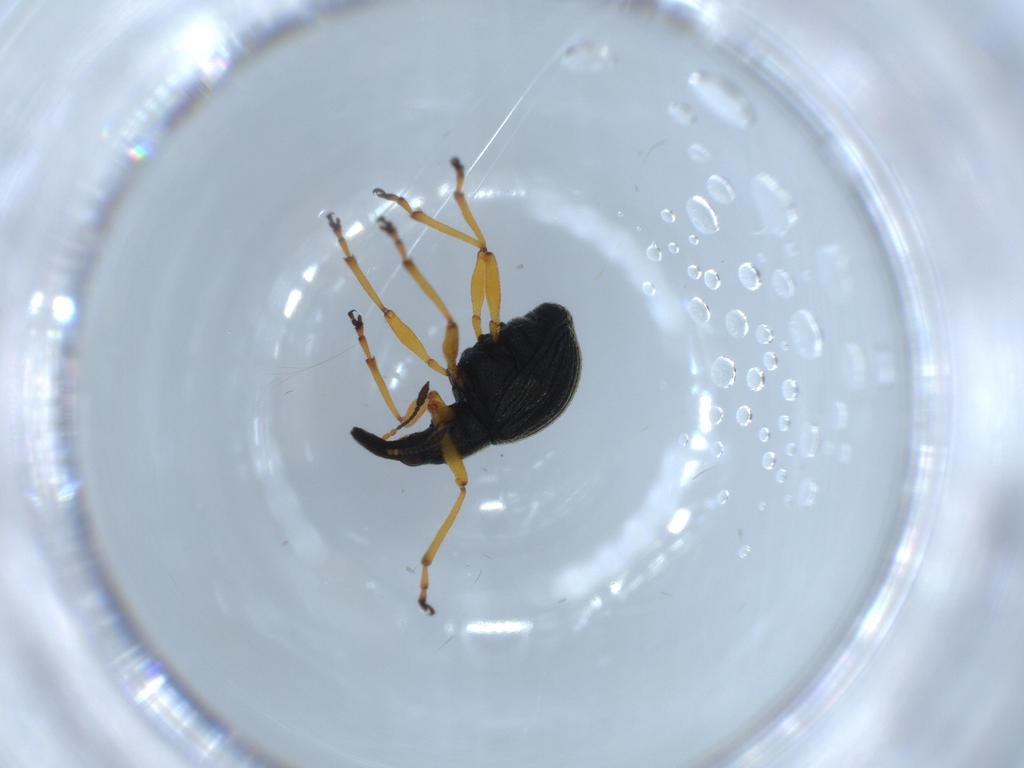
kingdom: Animalia
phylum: Arthropoda
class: Insecta
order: Coleoptera
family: Brentidae
